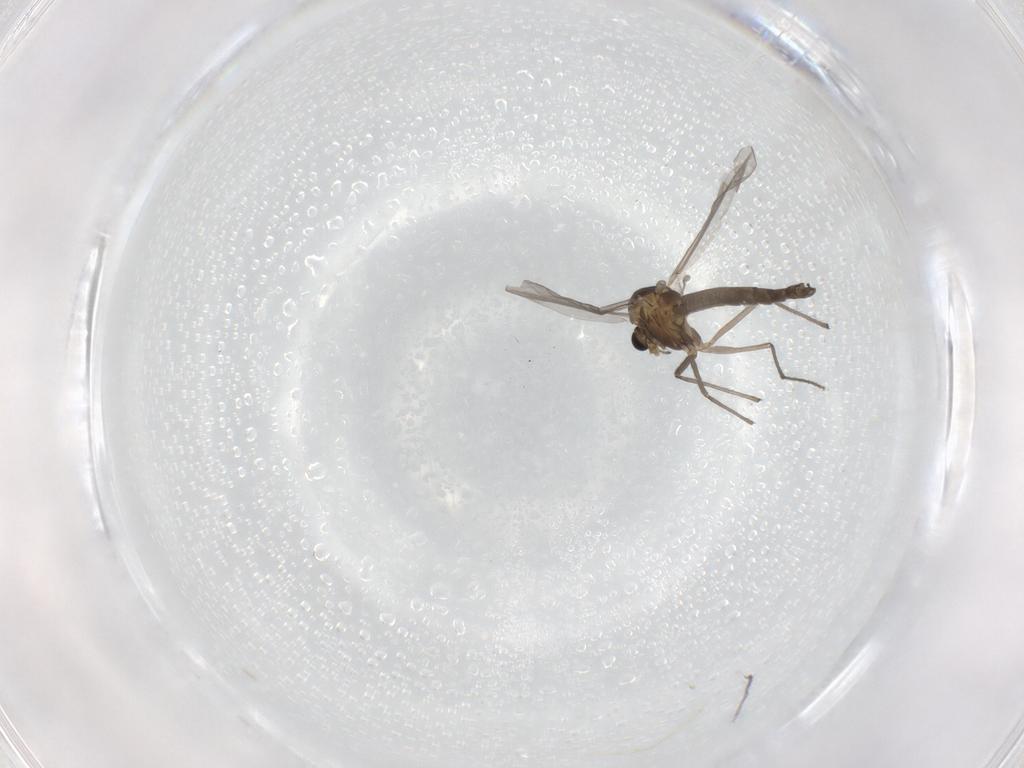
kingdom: Animalia
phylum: Arthropoda
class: Insecta
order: Diptera
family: Chironomidae
